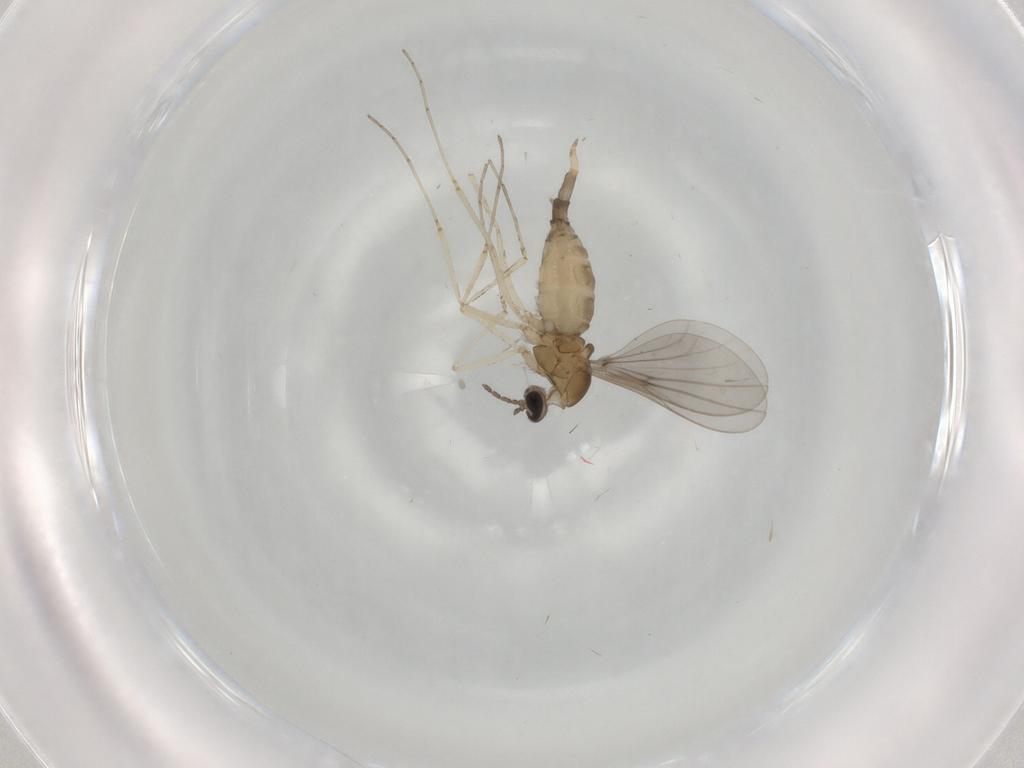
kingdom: Animalia
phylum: Arthropoda
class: Insecta
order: Diptera
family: Cecidomyiidae
